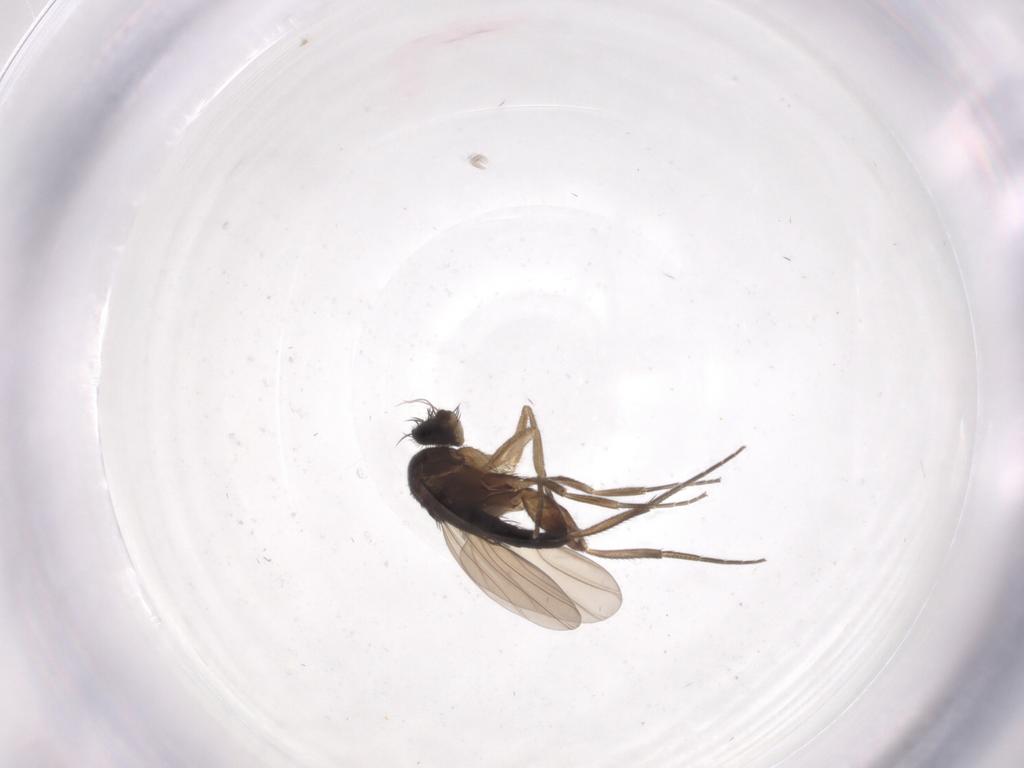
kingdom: Animalia
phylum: Arthropoda
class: Insecta
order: Diptera
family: Phoridae
